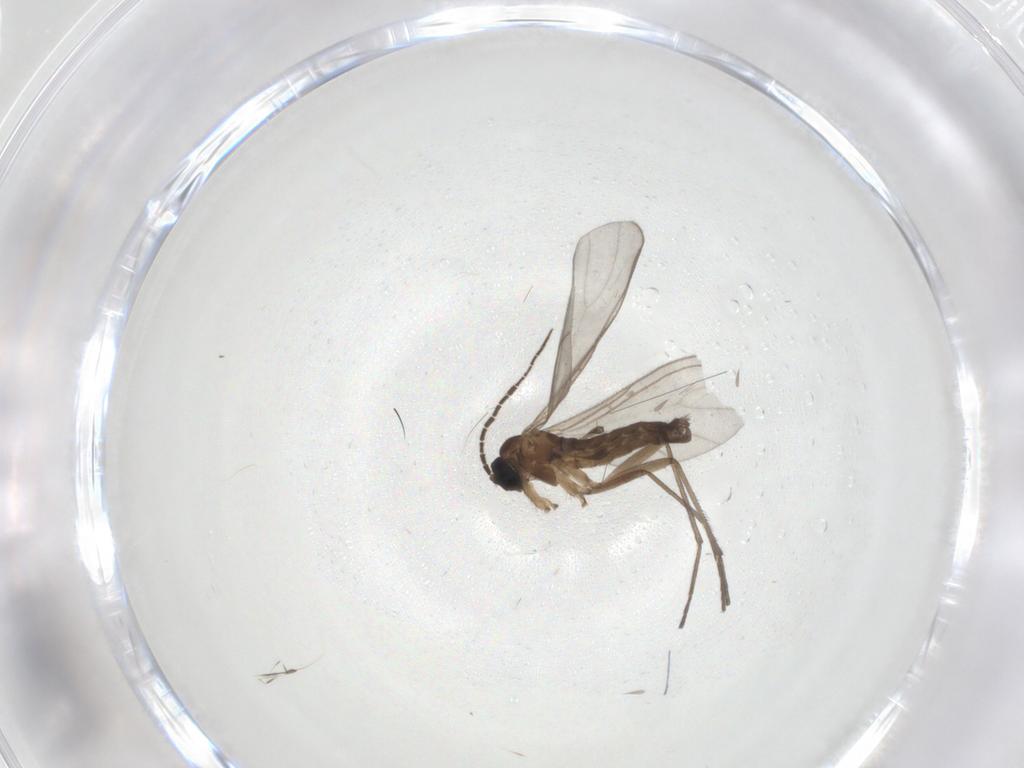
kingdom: Animalia
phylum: Arthropoda
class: Insecta
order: Diptera
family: Sciaridae
